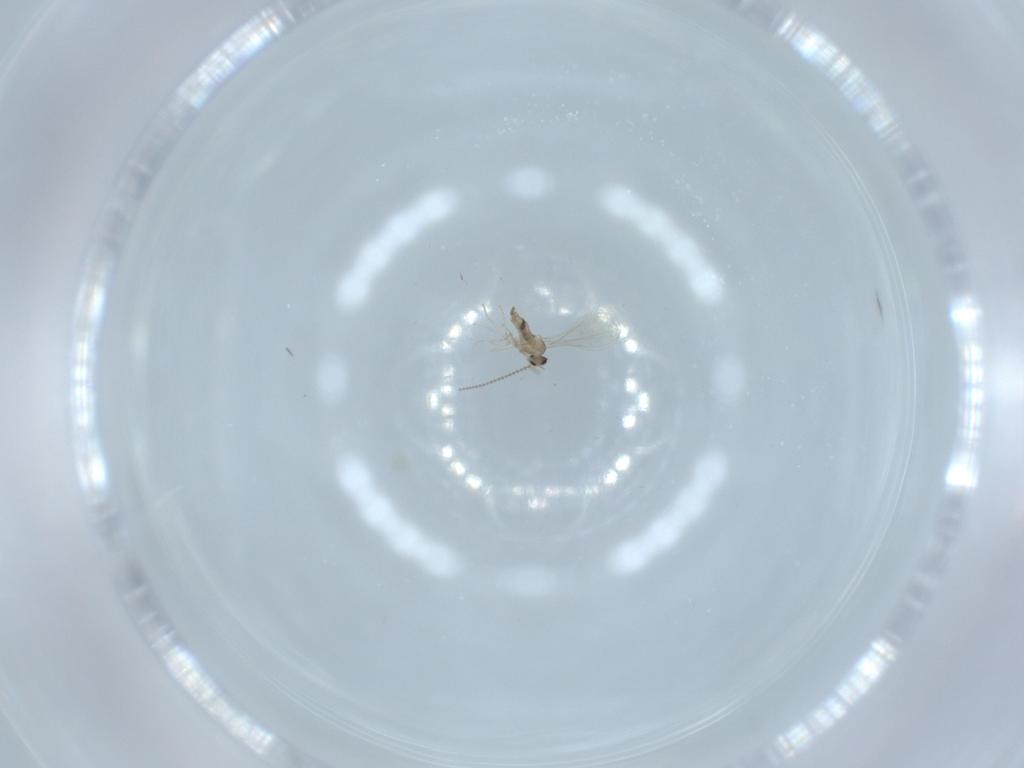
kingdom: Animalia
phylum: Arthropoda
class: Insecta
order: Diptera
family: Cecidomyiidae
